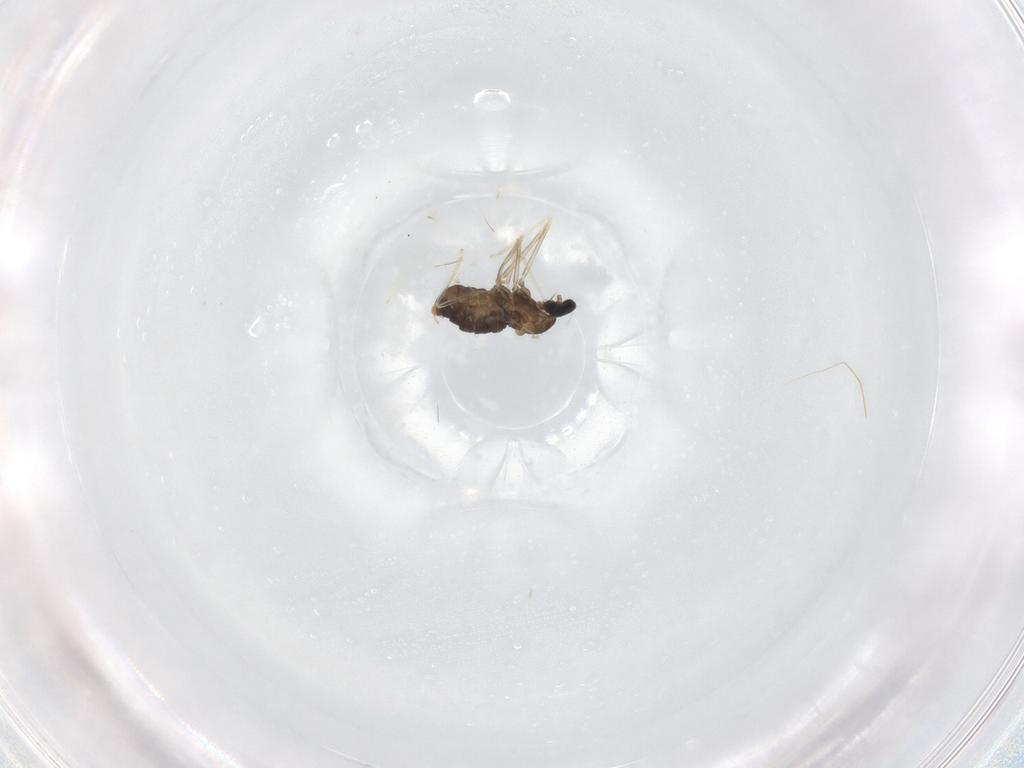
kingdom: Animalia
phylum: Arthropoda
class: Insecta
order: Diptera
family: Cecidomyiidae
